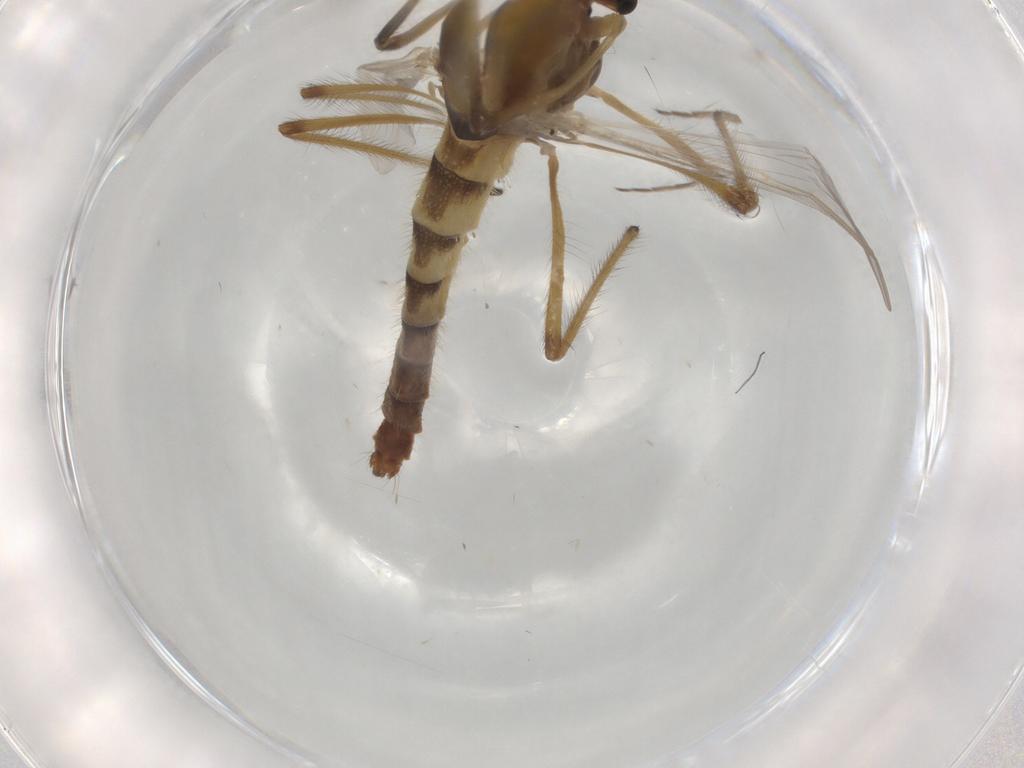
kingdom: Animalia
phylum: Arthropoda
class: Insecta
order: Diptera
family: Chironomidae
